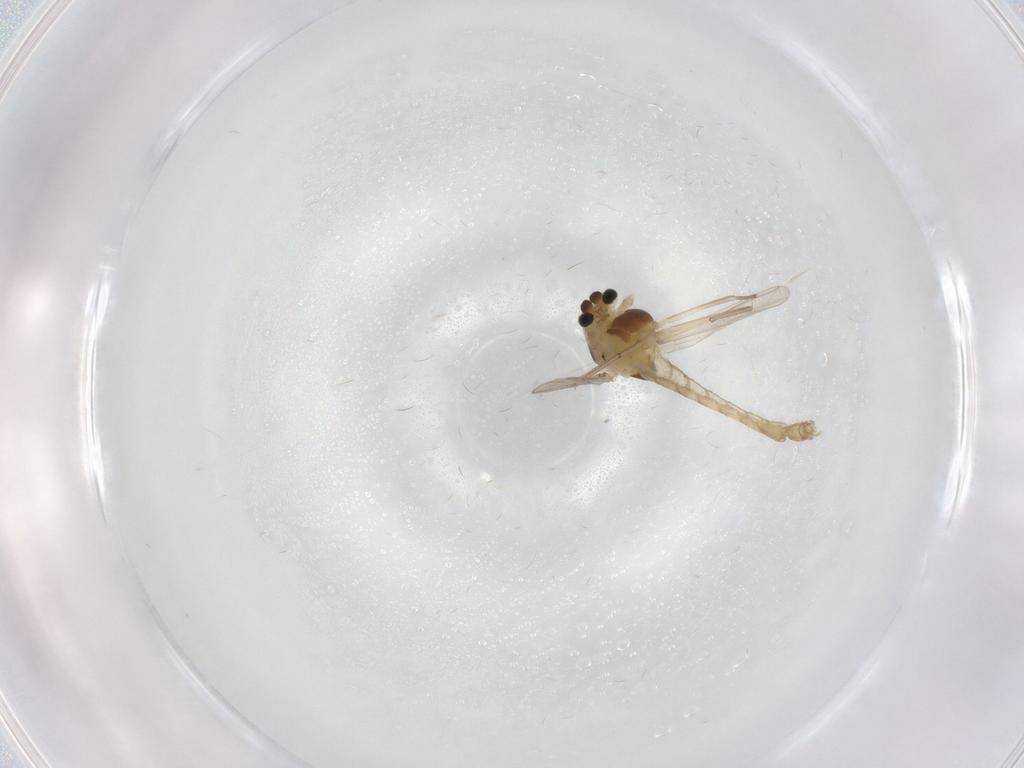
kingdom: Animalia
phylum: Arthropoda
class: Insecta
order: Diptera
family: Chironomidae
